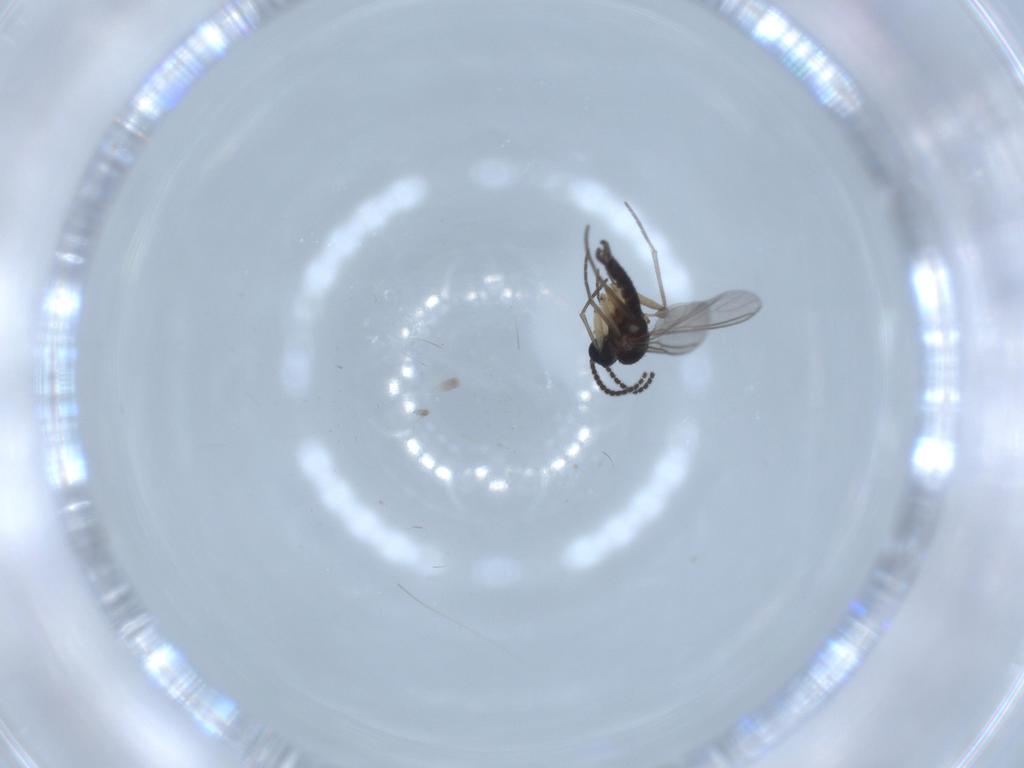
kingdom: Animalia
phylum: Arthropoda
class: Insecta
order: Diptera
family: Sciaridae
